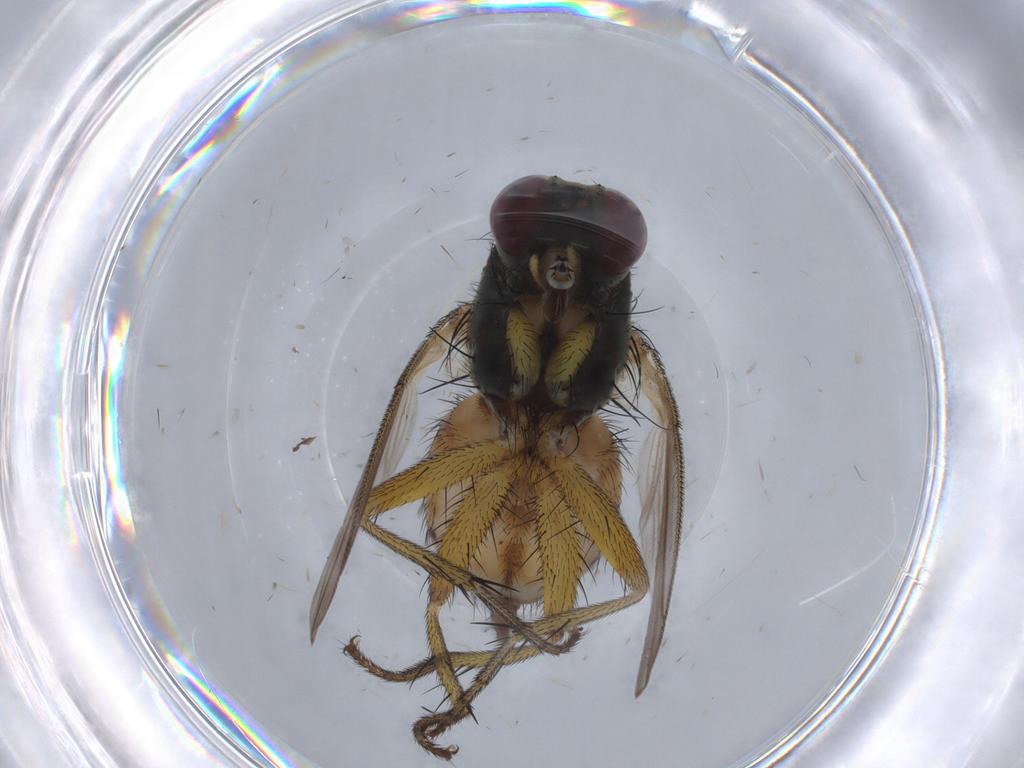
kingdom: Animalia
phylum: Arthropoda
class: Insecta
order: Diptera
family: Muscidae
